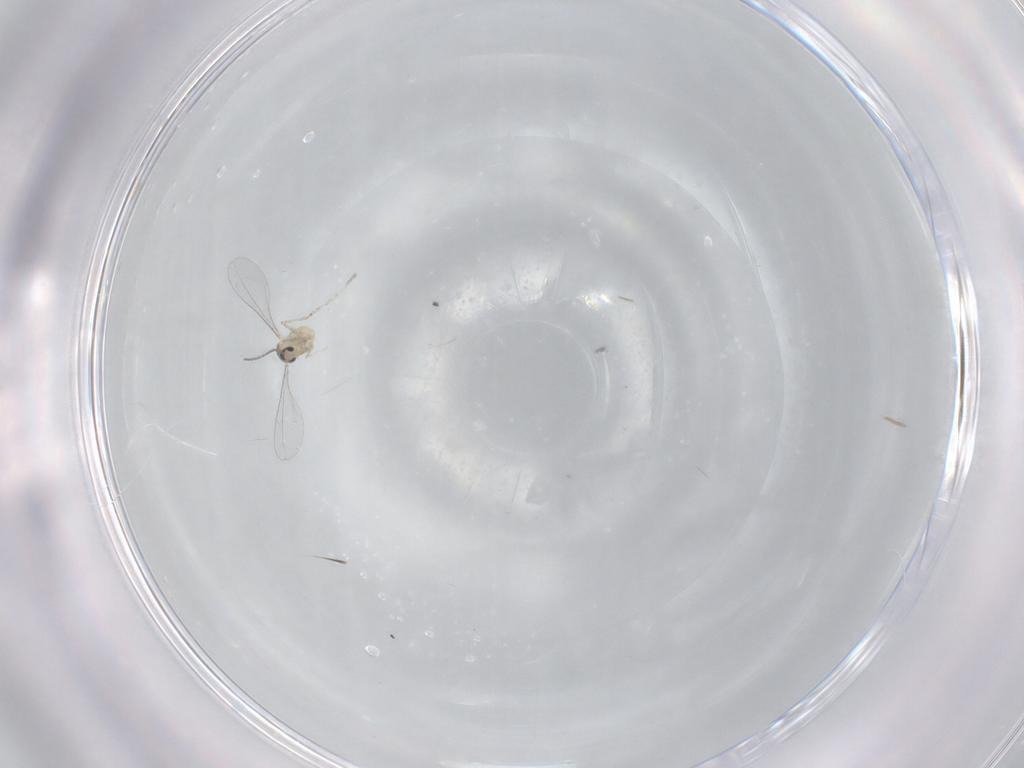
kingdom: Animalia
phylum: Arthropoda
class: Insecta
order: Diptera
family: Cecidomyiidae
